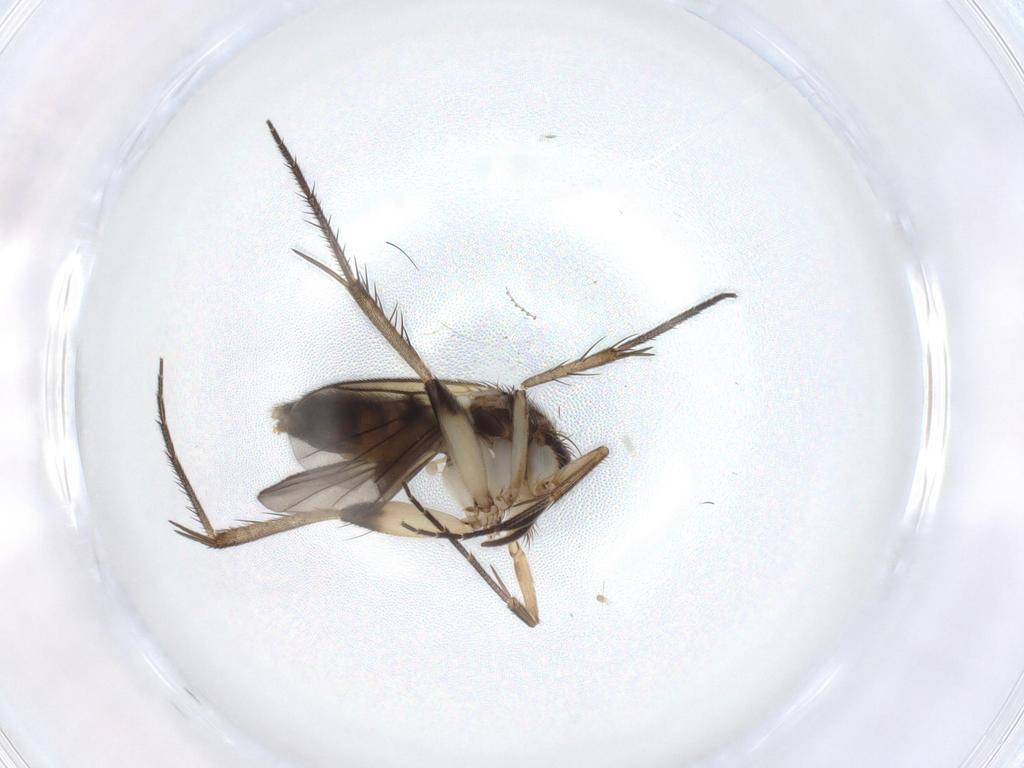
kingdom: Animalia
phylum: Arthropoda
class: Insecta
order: Diptera
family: Mycetophilidae
